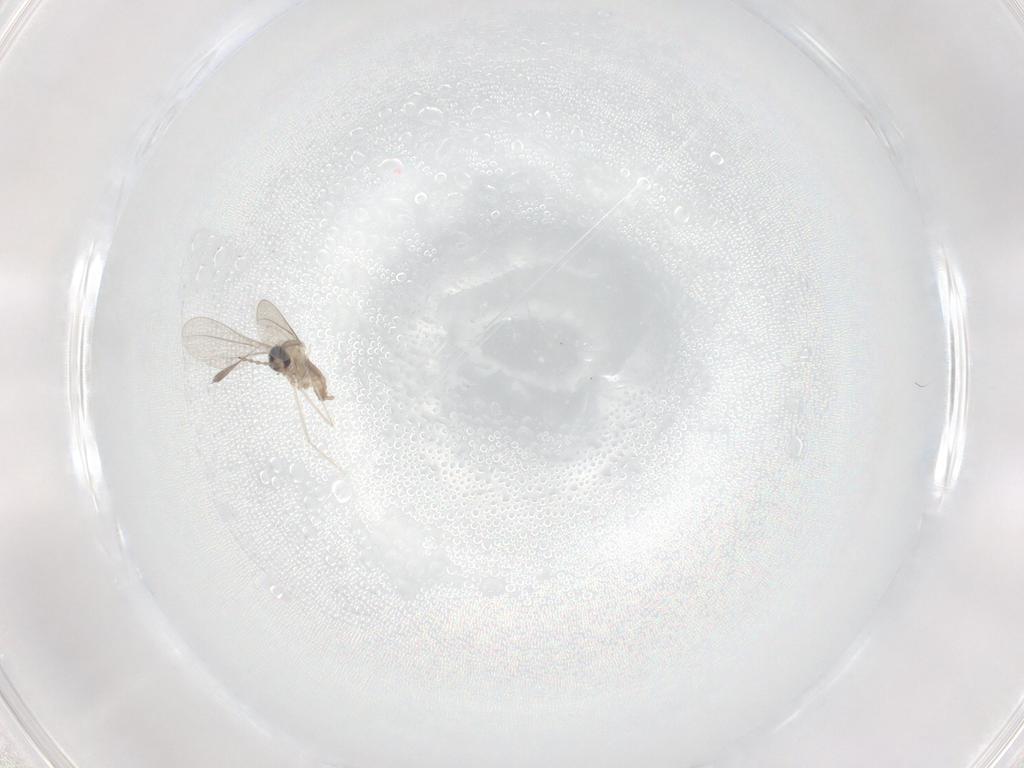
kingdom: Animalia
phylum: Arthropoda
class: Insecta
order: Diptera
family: Cecidomyiidae
